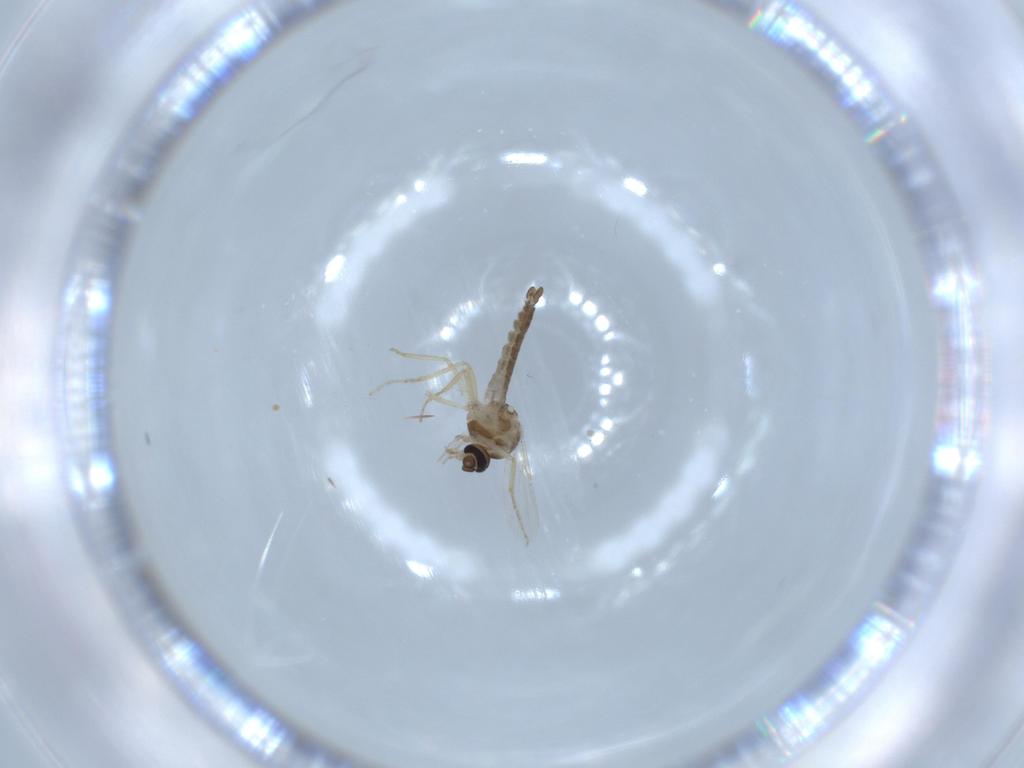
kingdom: Animalia
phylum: Arthropoda
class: Insecta
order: Diptera
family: Ceratopogonidae
